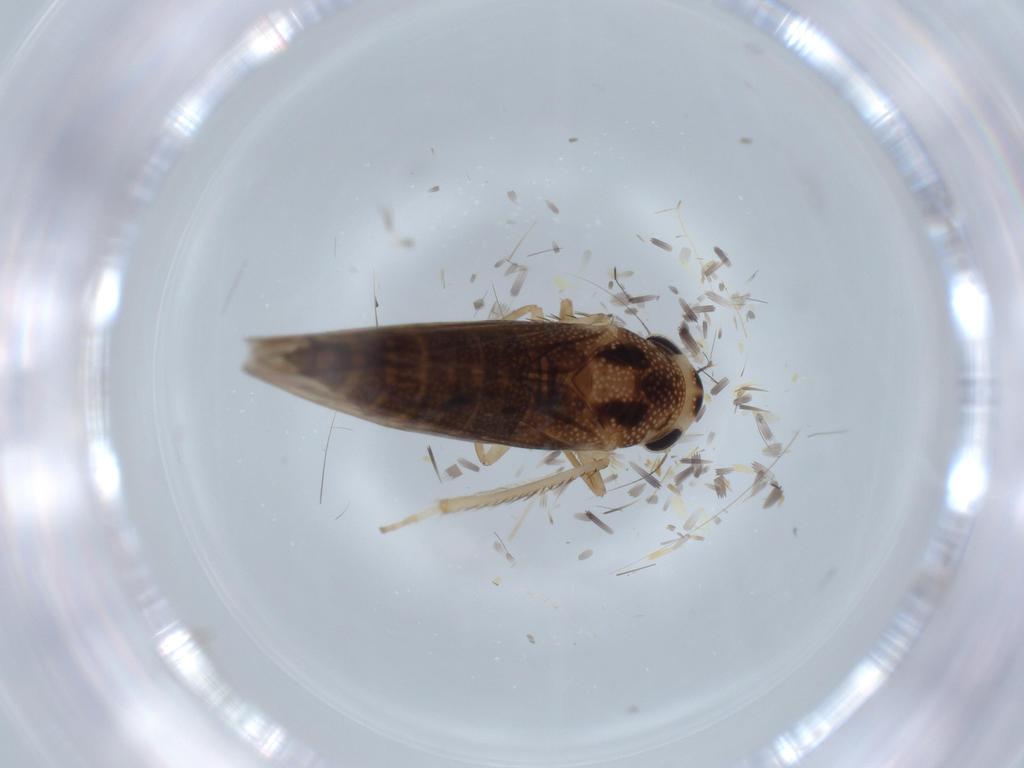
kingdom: Animalia
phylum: Arthropoda
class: Insecta
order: Hemiptera
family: Cicadellidae
